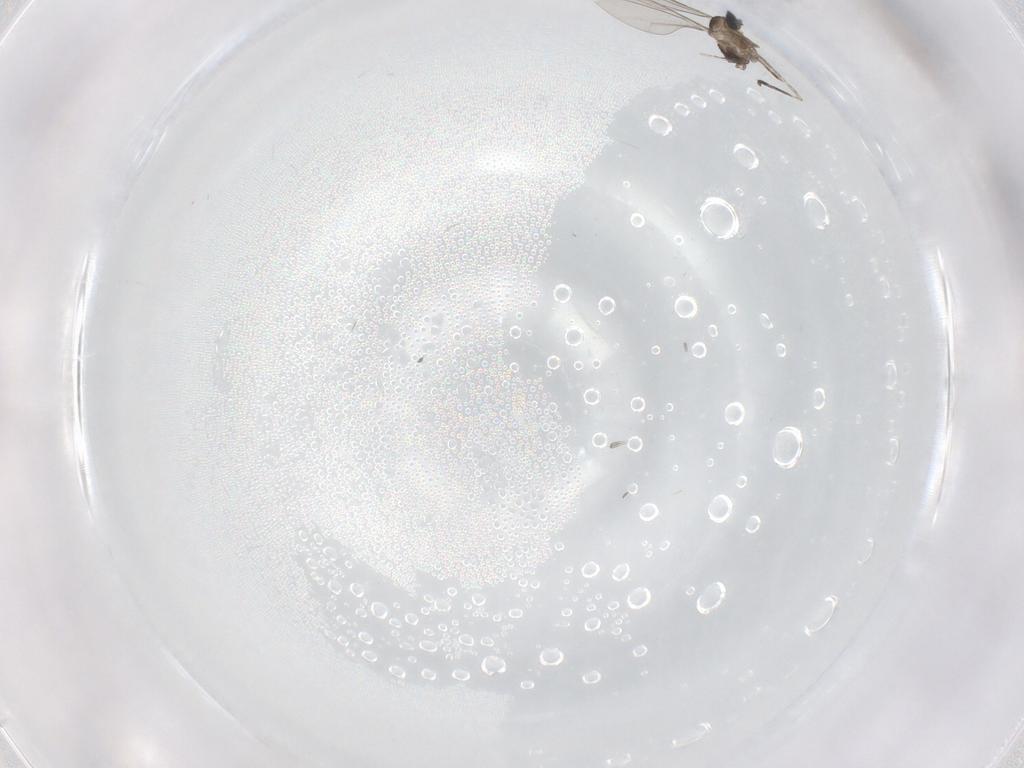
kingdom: Animalia
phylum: Arthropoda
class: Insecta
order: Diptera
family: Cecidomyiidae
